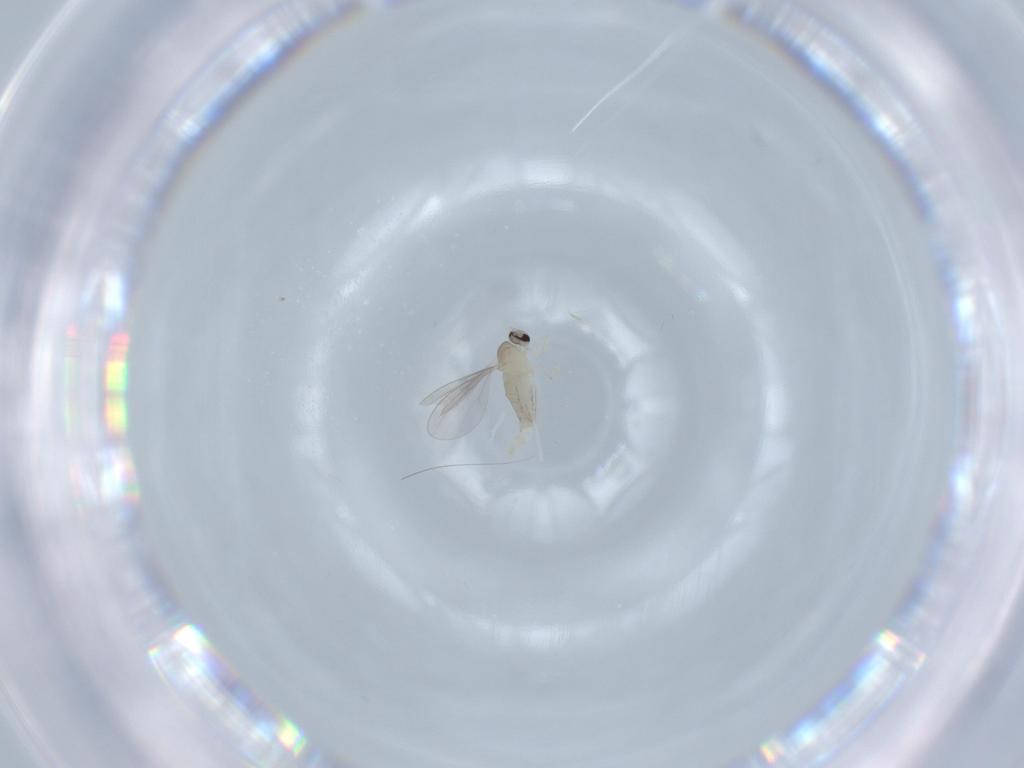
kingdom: Animalia
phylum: Arthropoda
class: Insecta
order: Diptera
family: Cecidomyiidae
